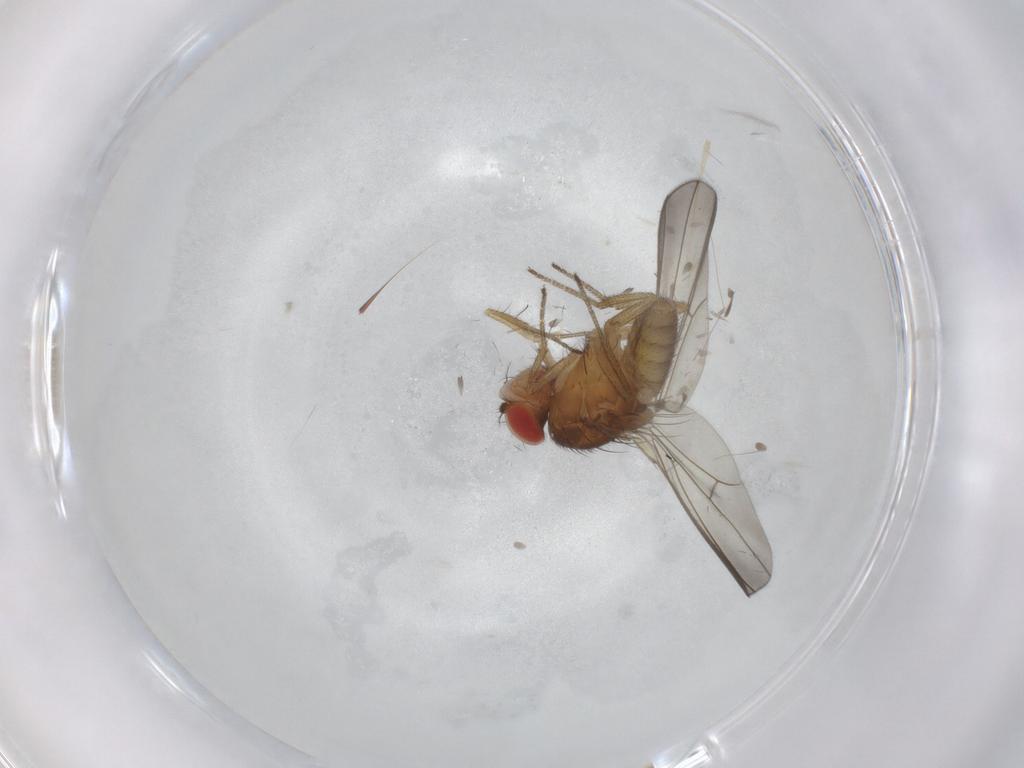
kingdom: Animalia
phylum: Arthropoda
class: Insecta
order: Diptera
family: Drosophilidae
